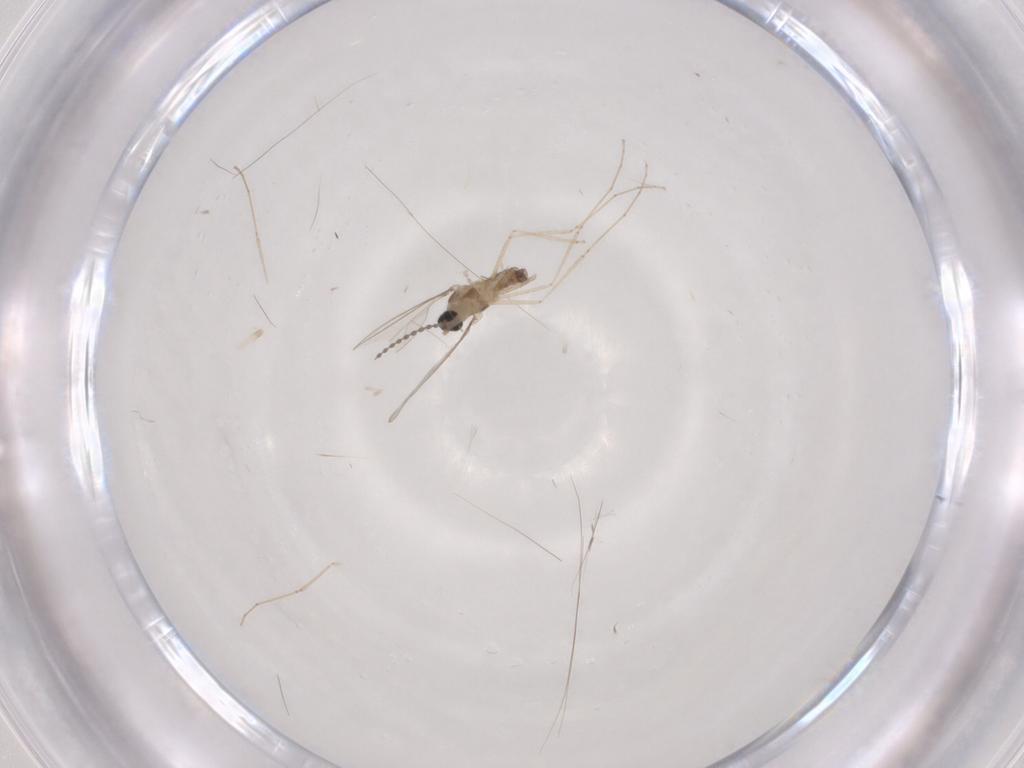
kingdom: Animalia
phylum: Arthropoda
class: Insecta
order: Diptera
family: Cecidomyiidae
